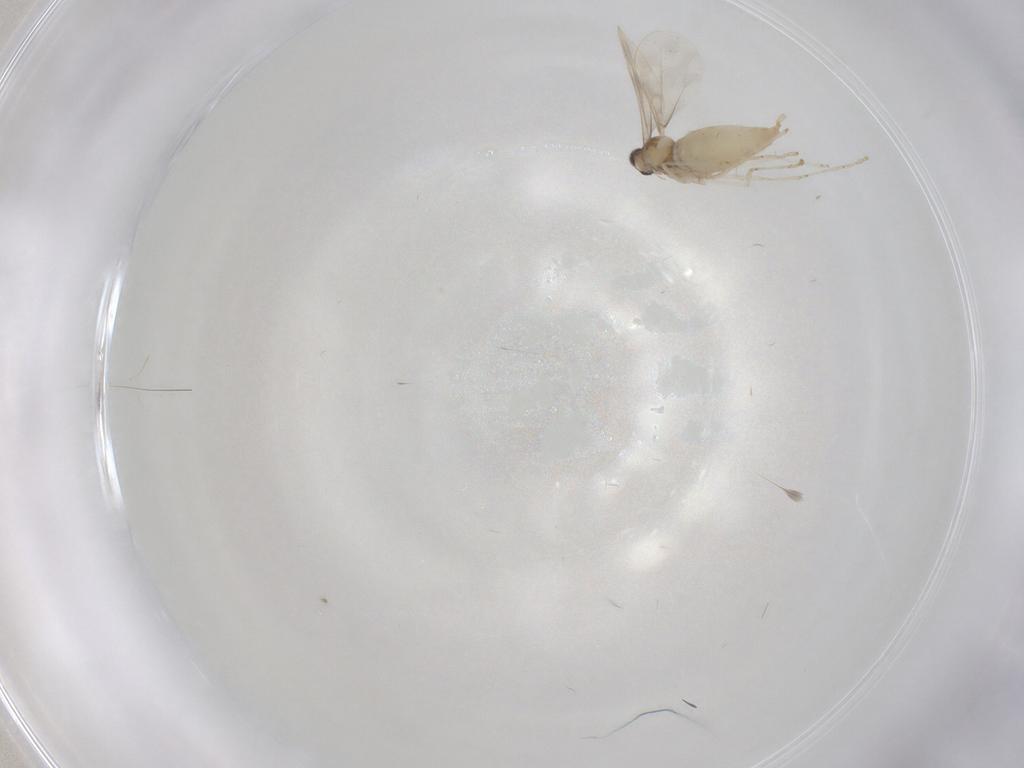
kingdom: Animalia
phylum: Arthropoda
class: Insecta
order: Diptera
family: Cecidomyiidae
